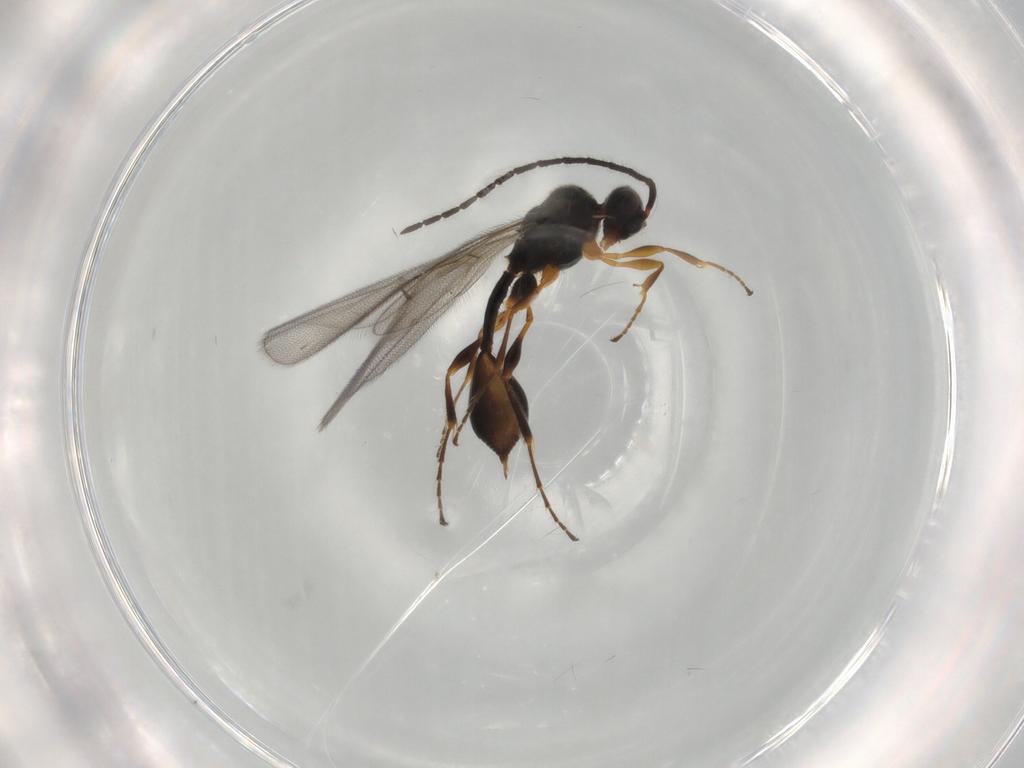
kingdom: Animalia
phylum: Arthropoda
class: Insecta
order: Hymenoptera
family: Diapriidae
